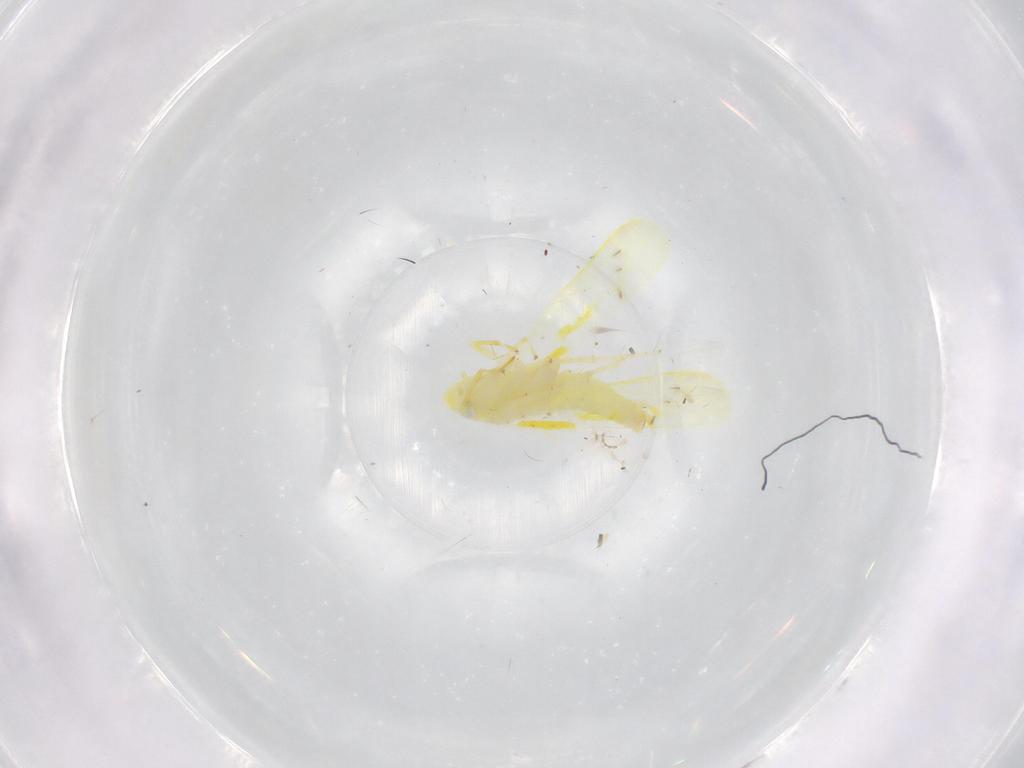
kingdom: Animalia
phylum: Arthropoda
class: Insecta
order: Hemiptera
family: Cicadellidae
